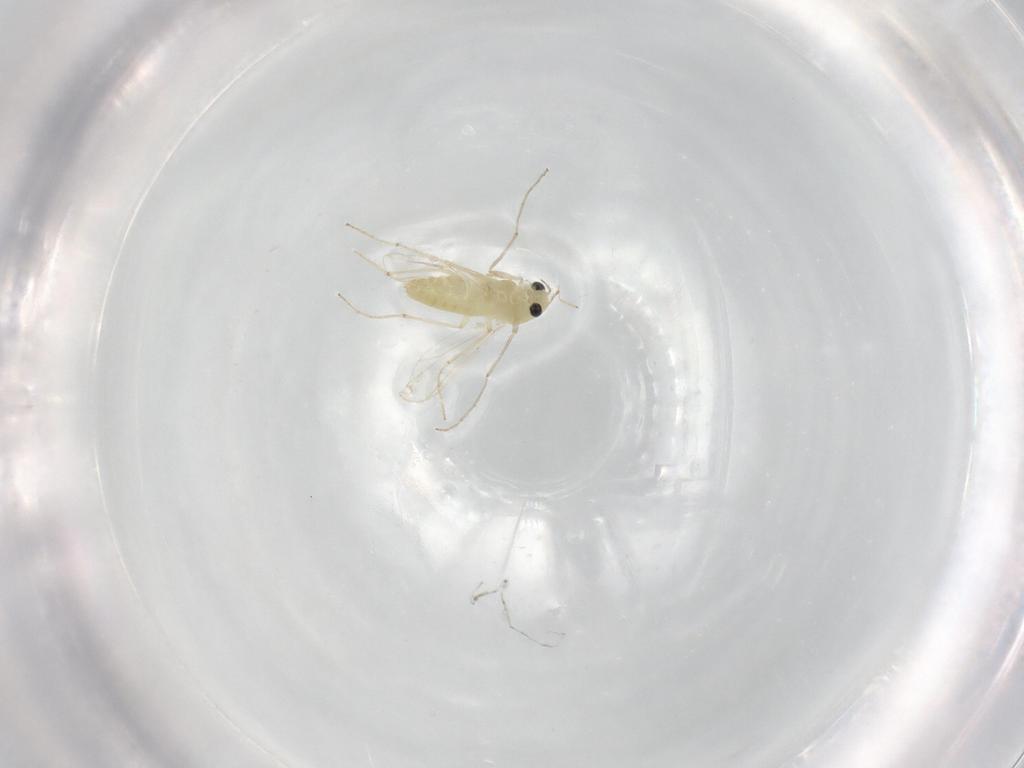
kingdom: Animalia
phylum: Arthropoda
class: Insecta
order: Diptera
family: Chironomidae
